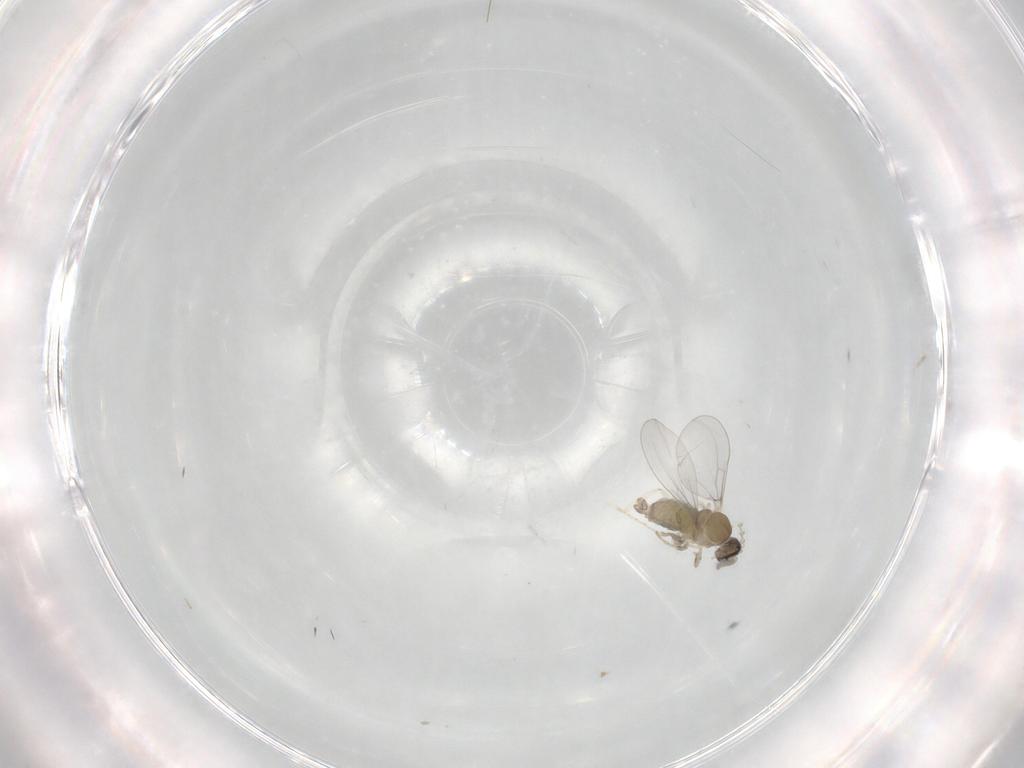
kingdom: Animalia
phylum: Arthropoda
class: Insecta
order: Diptera
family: Cecidomyiidae
